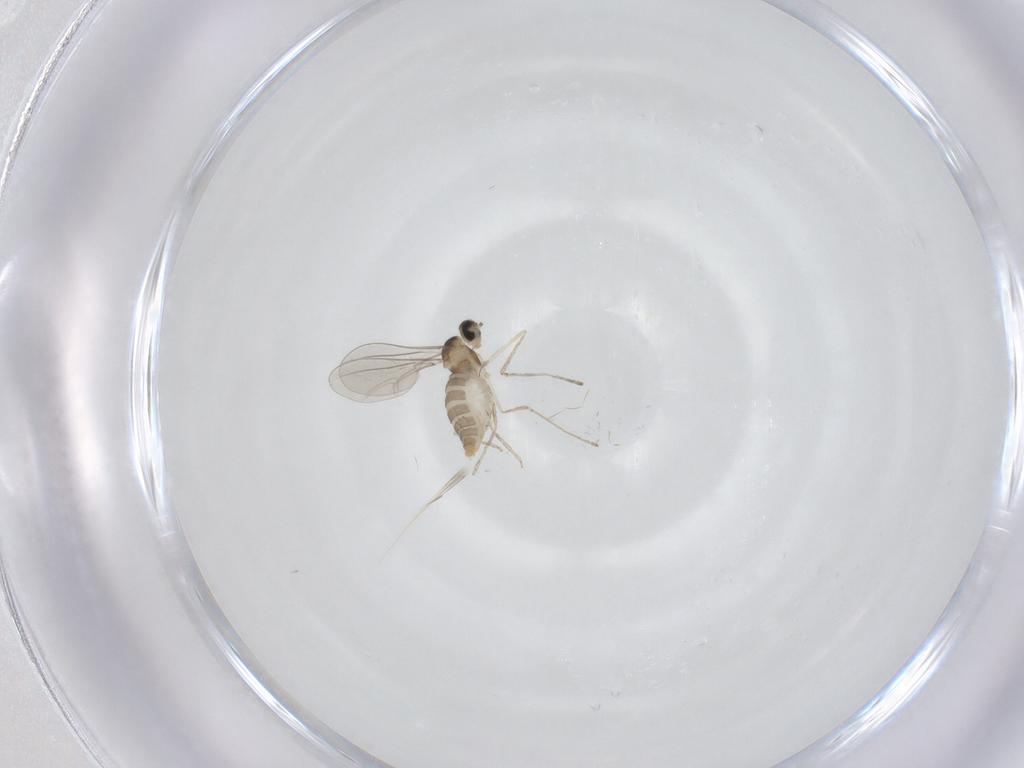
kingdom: Animalia
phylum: Arthropoda
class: Insecta
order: Diptera
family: Cecidomyiidae
